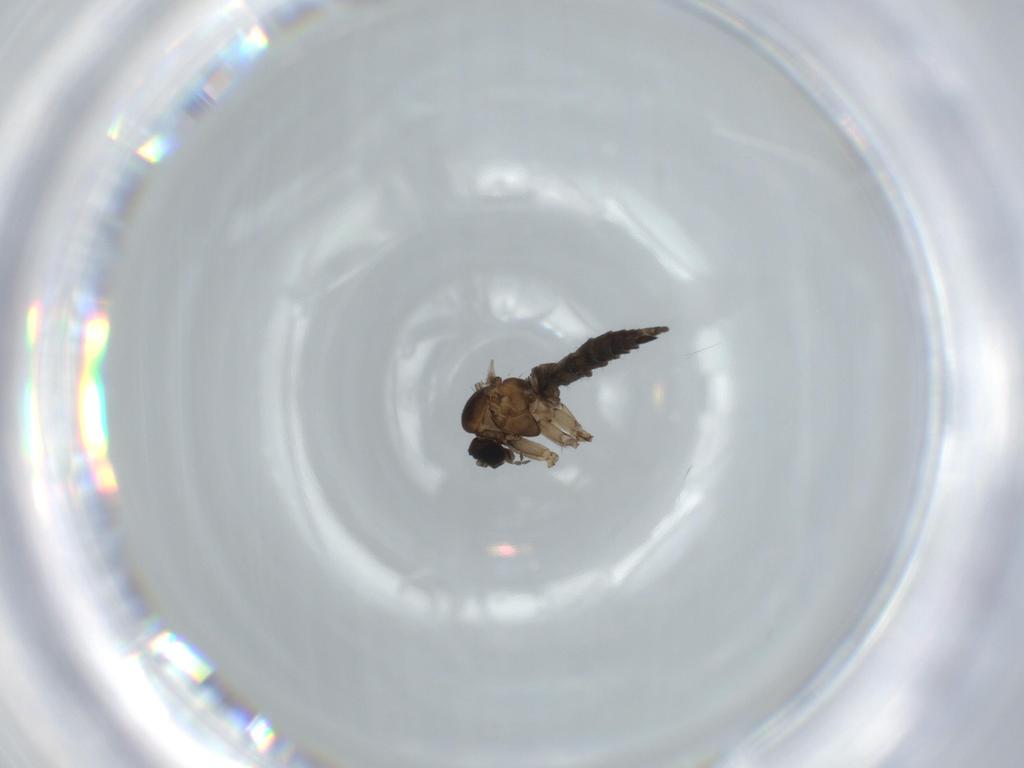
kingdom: Animalia
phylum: Arthropoda
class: Insecta
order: Diptera
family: Sciaridae
